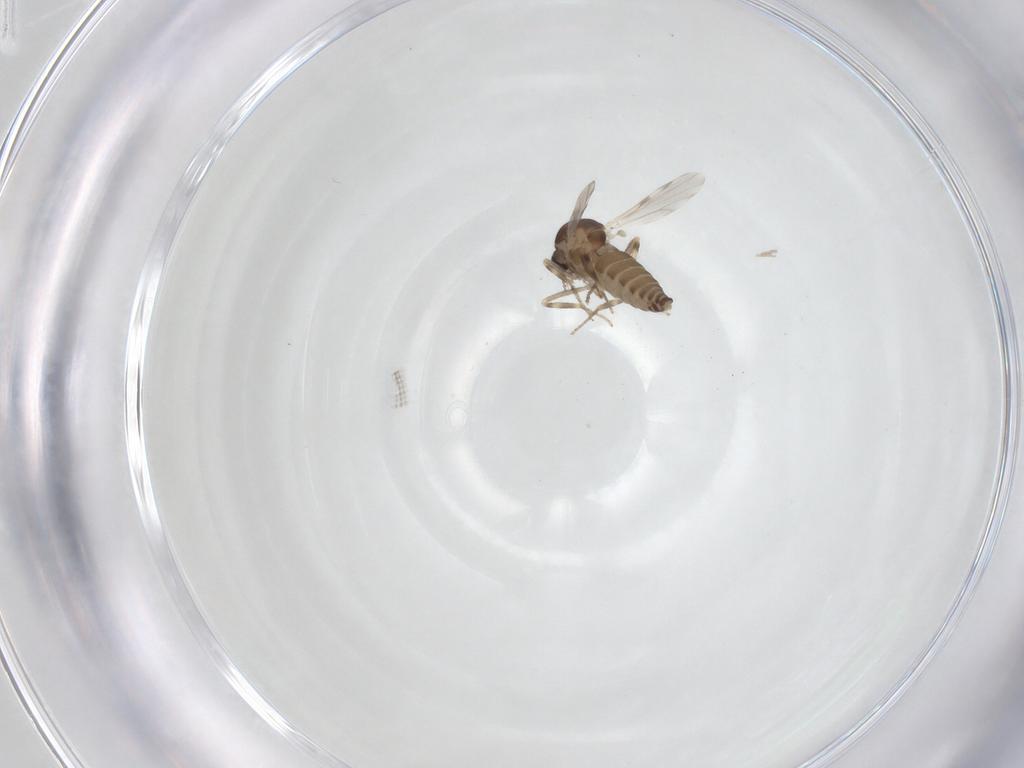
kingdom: Animalia
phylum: Arthropoda
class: Insecta
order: Diptera
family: Ceratopogonidae
